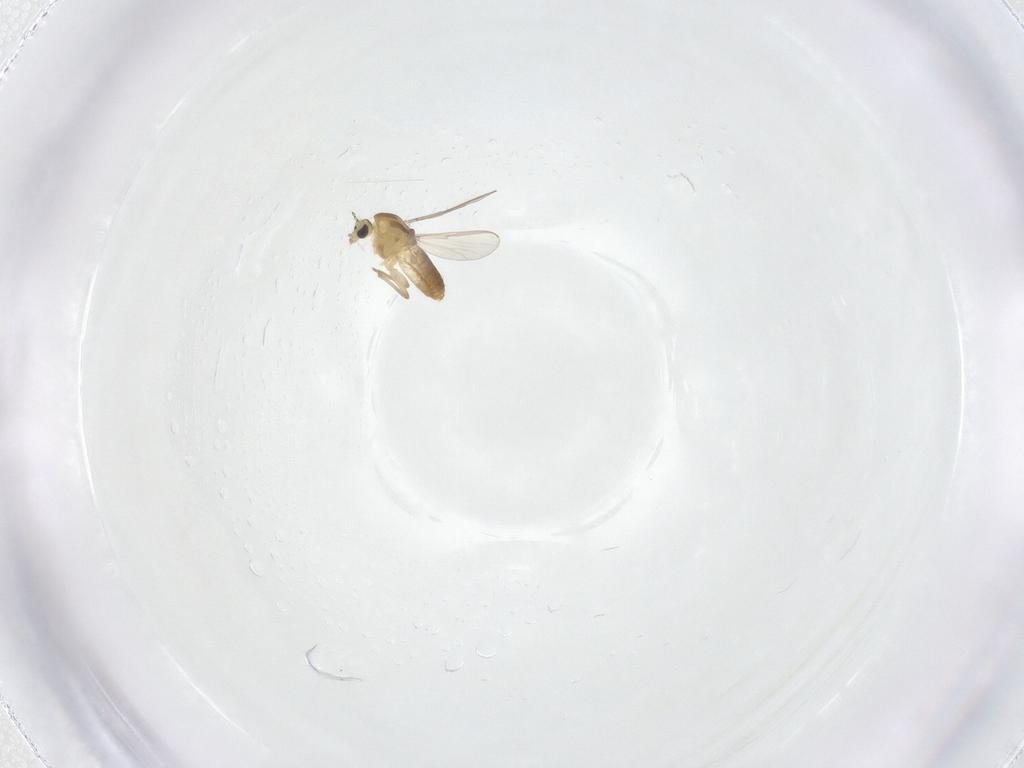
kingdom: Animalia
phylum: Arthropoda
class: Insecta
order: Diptera
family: Chironomidae
